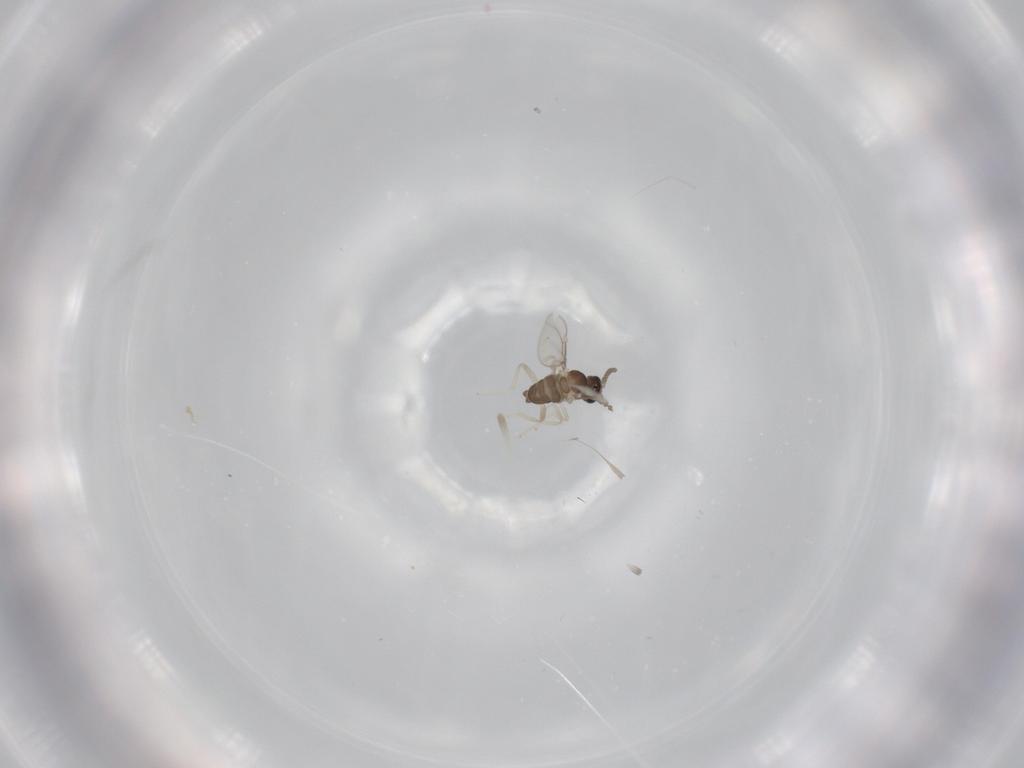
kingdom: Animalia
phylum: Arthropoda
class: Insecta
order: Diptera
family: Cecidomyiidae
